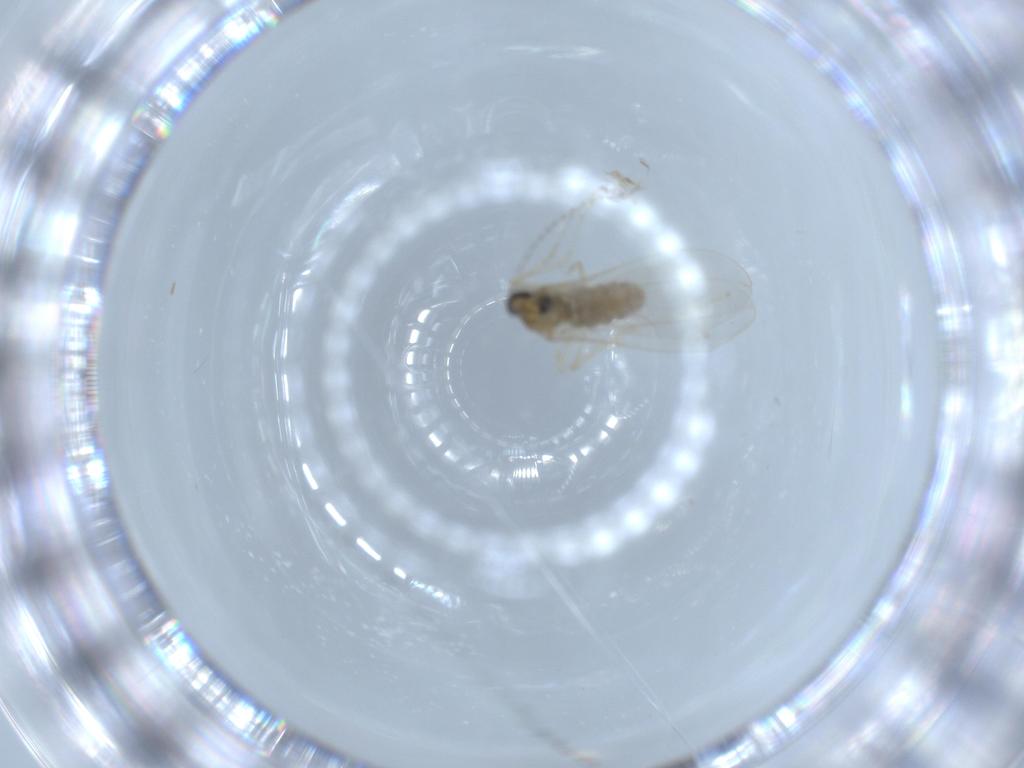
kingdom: Animalia
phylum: Arthropoda
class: Insecta
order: Diptera
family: Cecidomyiidae
